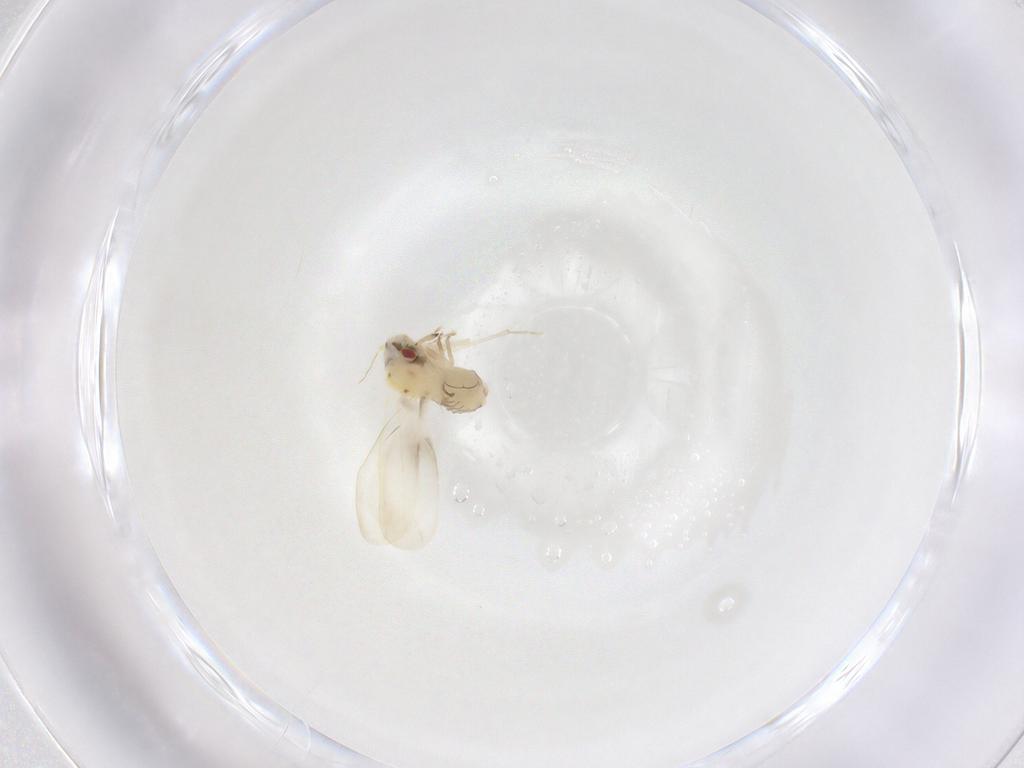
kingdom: Animalia
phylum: Arthropoda
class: Insecta
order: Hemiptera
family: Aleyrodidae
